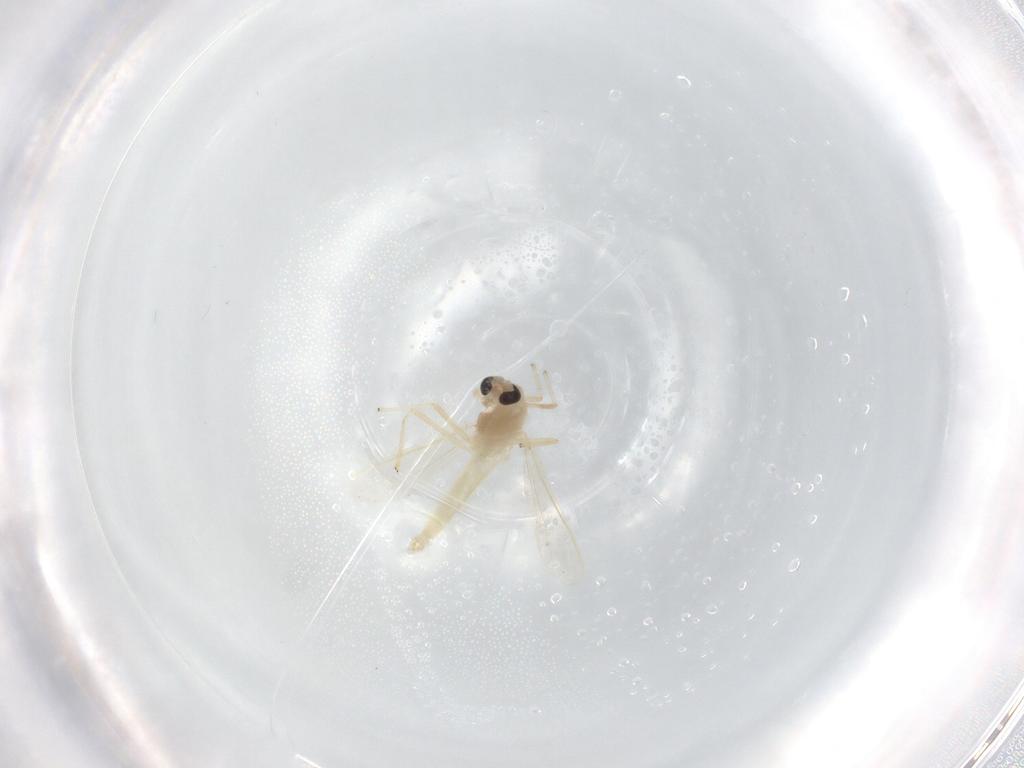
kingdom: Animalia
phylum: Arthropoda
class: Insecta
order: Diptera
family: Chironomidae
